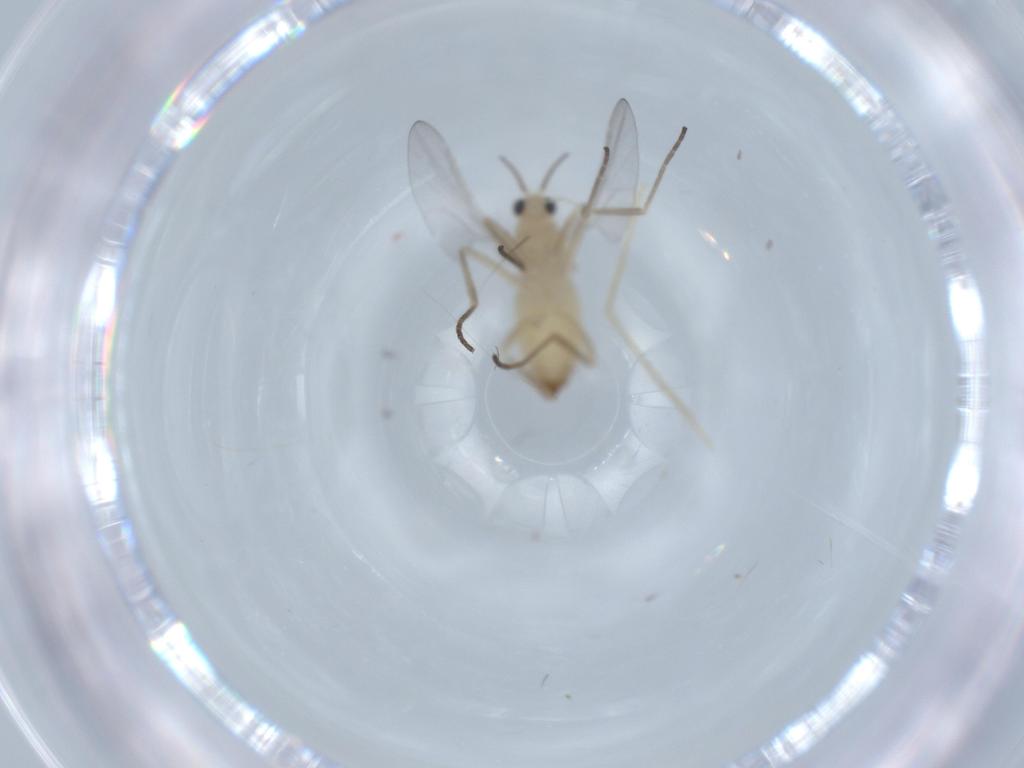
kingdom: Animalia
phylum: Arthropoda
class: Insecta
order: Diptera
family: Cecidomyiidae
